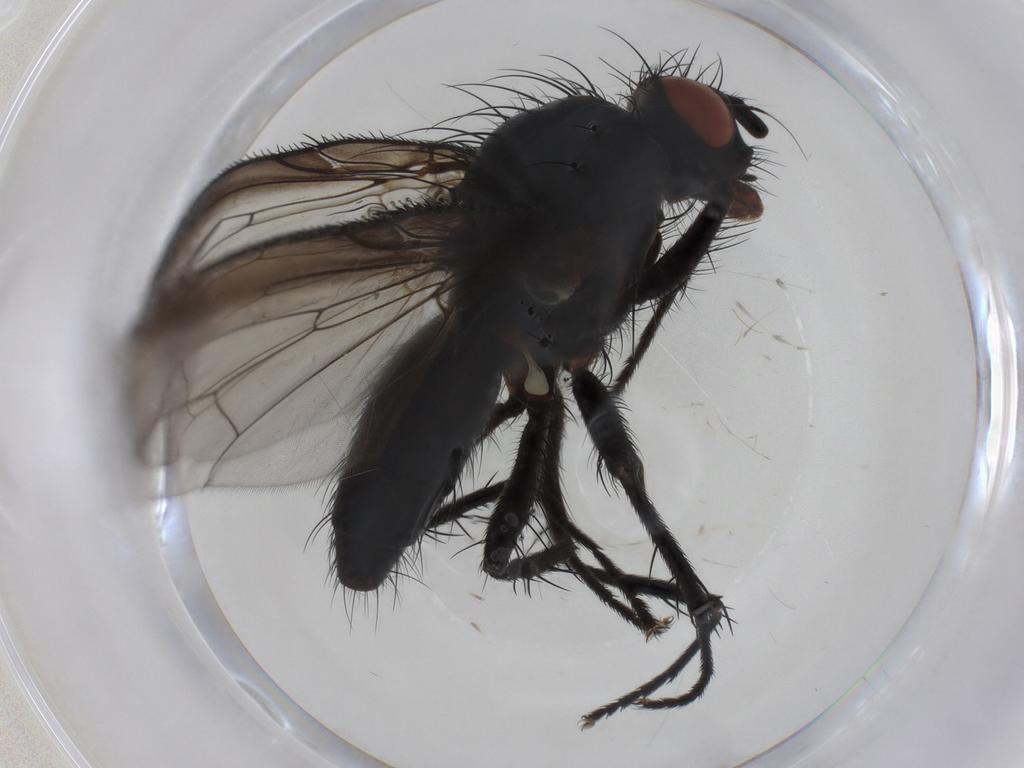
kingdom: Animalia
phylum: Arthropoda
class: Insecta
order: Diptera
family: Anthomyiidae
